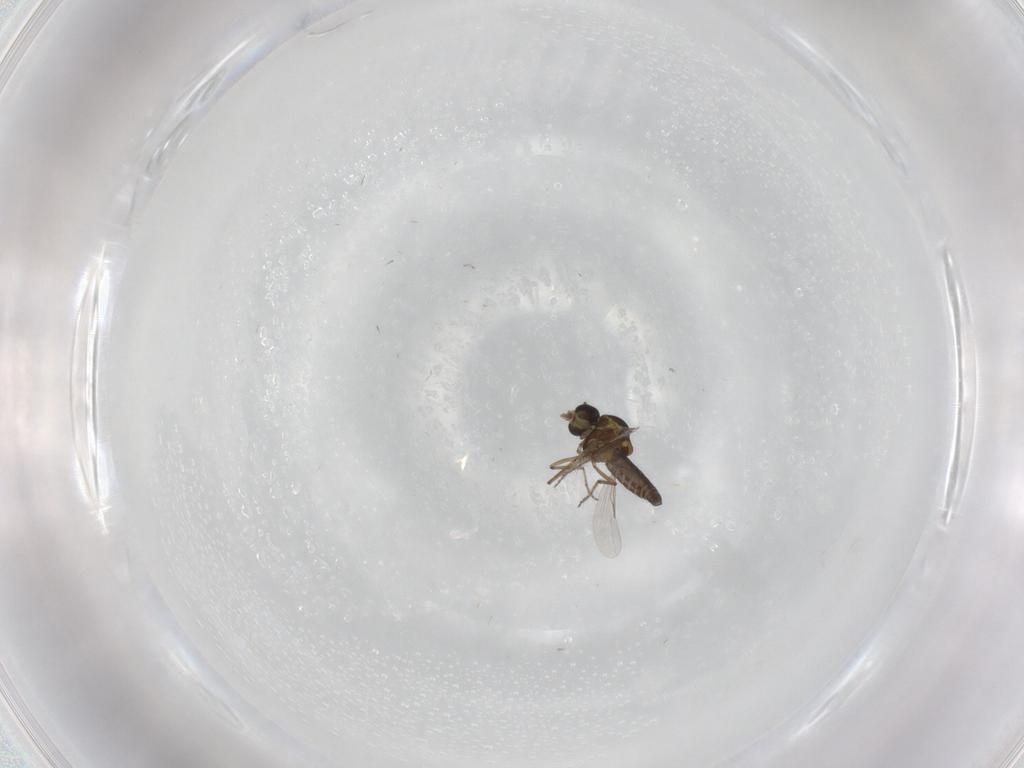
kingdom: Animalia
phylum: Arthropoda
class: Insecta
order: Diptera
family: Ceratopogonidae
